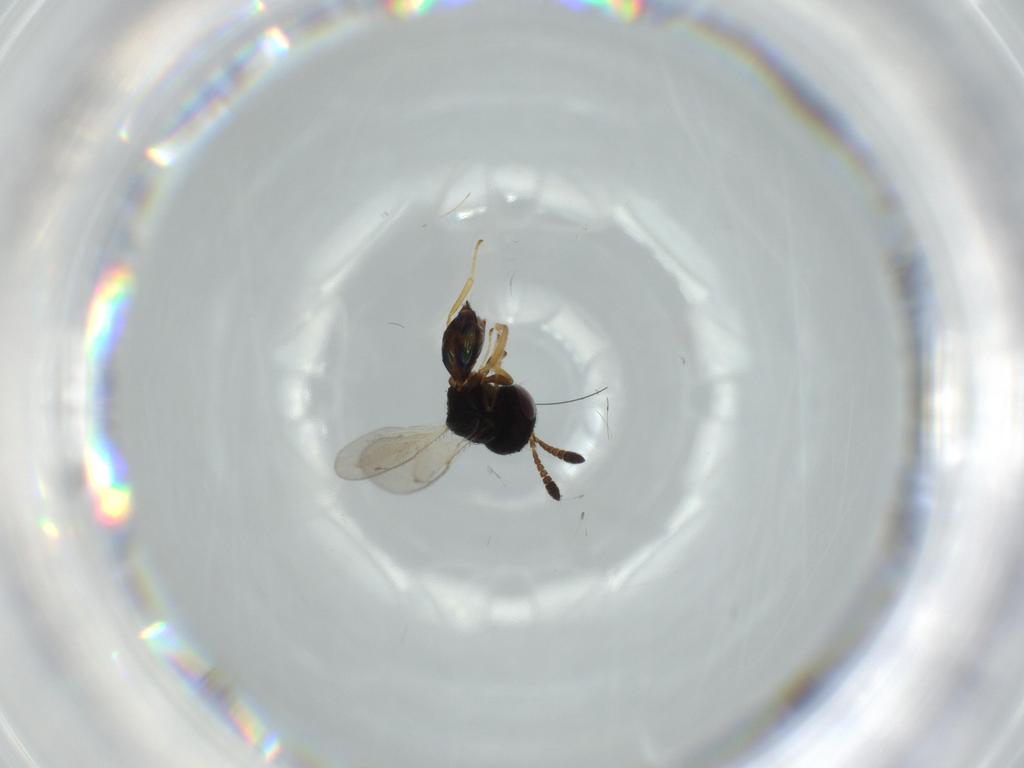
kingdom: Animalia
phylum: Arthropoda
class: Insecta
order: Hymenoptera
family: Pteromalidae
